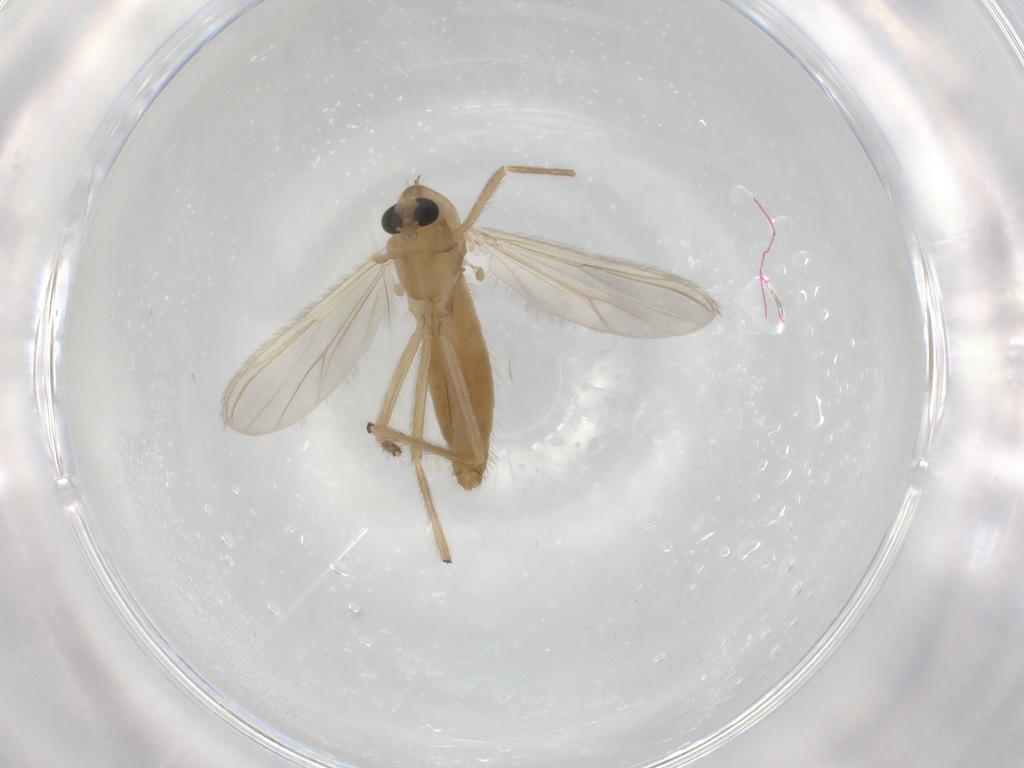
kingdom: Animalia
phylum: Arthropoda
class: Insecta
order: Diptera
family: Chironomidae
